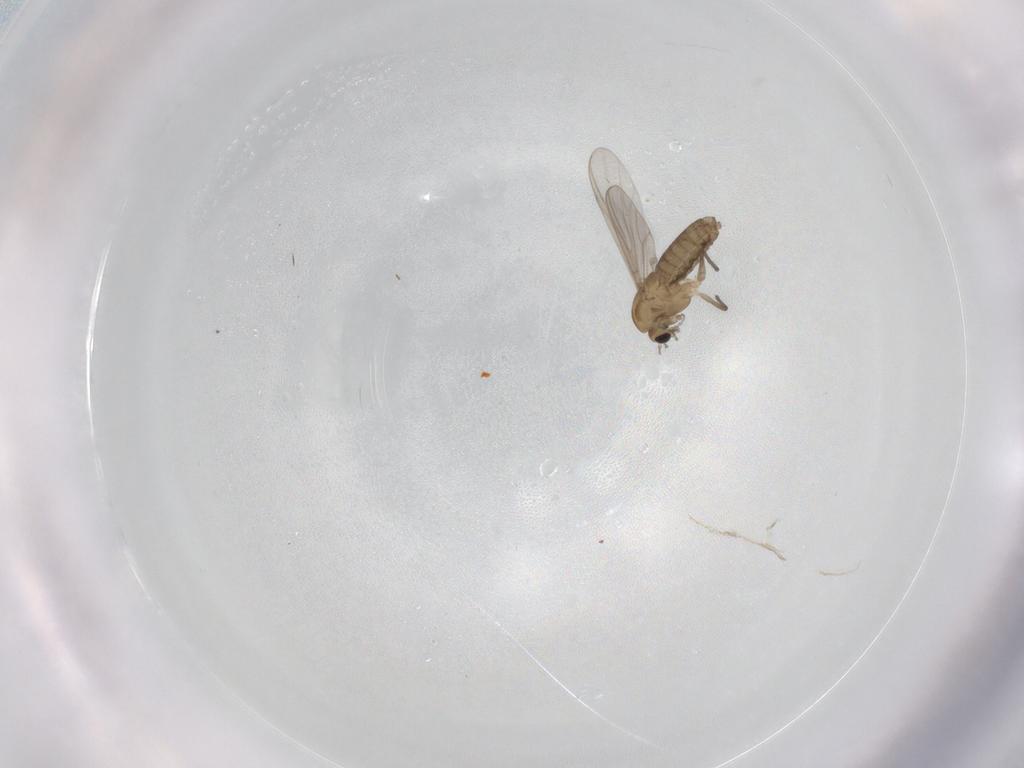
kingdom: Animalia
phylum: Arthropoda
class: Insecta
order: Diptera
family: Chironomidae
